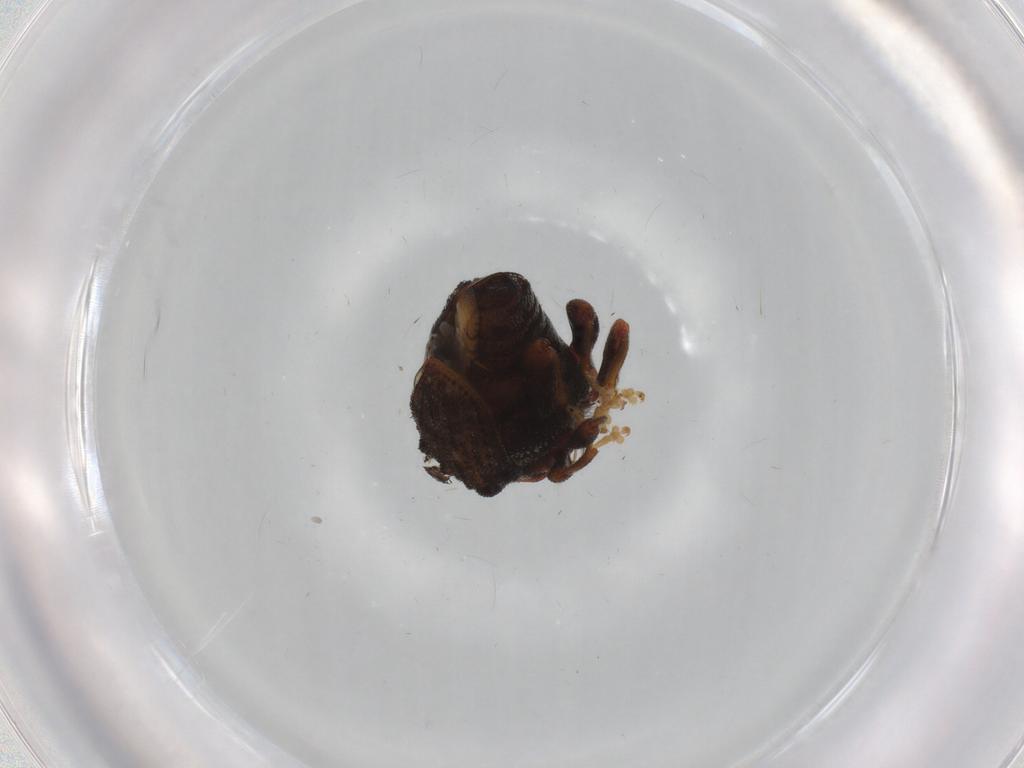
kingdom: Animalia
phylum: Arthropoda
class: Insecta
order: Coleoptera
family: Curculionidae
